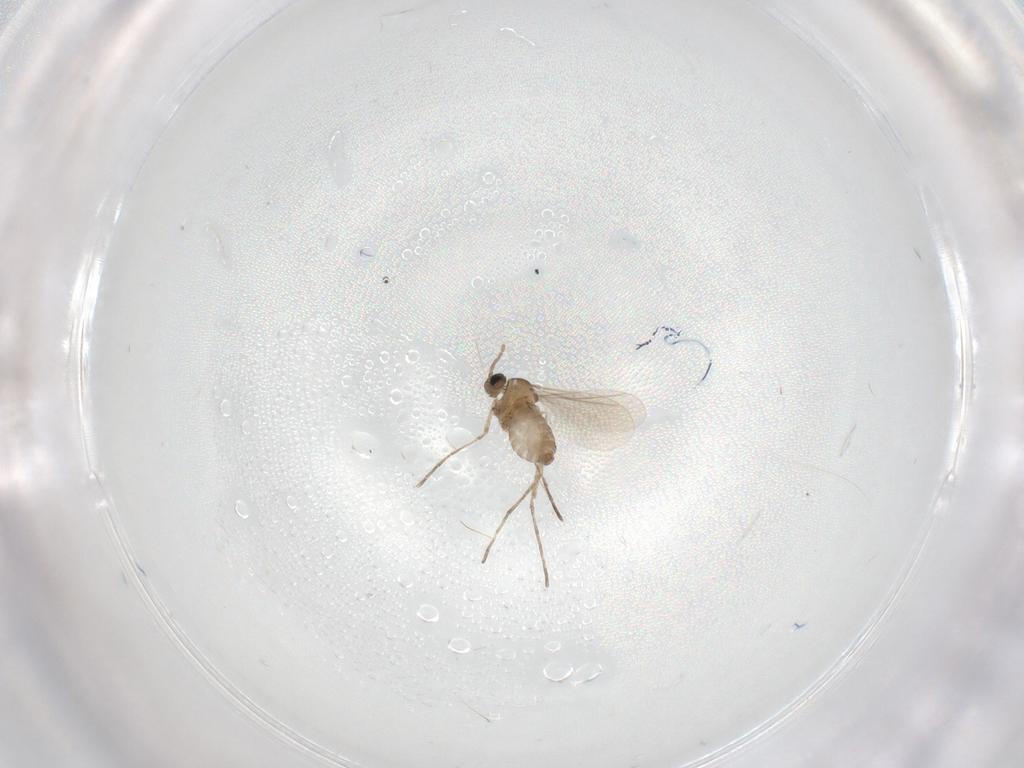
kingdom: Animalia
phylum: Arthropoda
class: Insecta
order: Diptera
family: Cecidomyiidae
